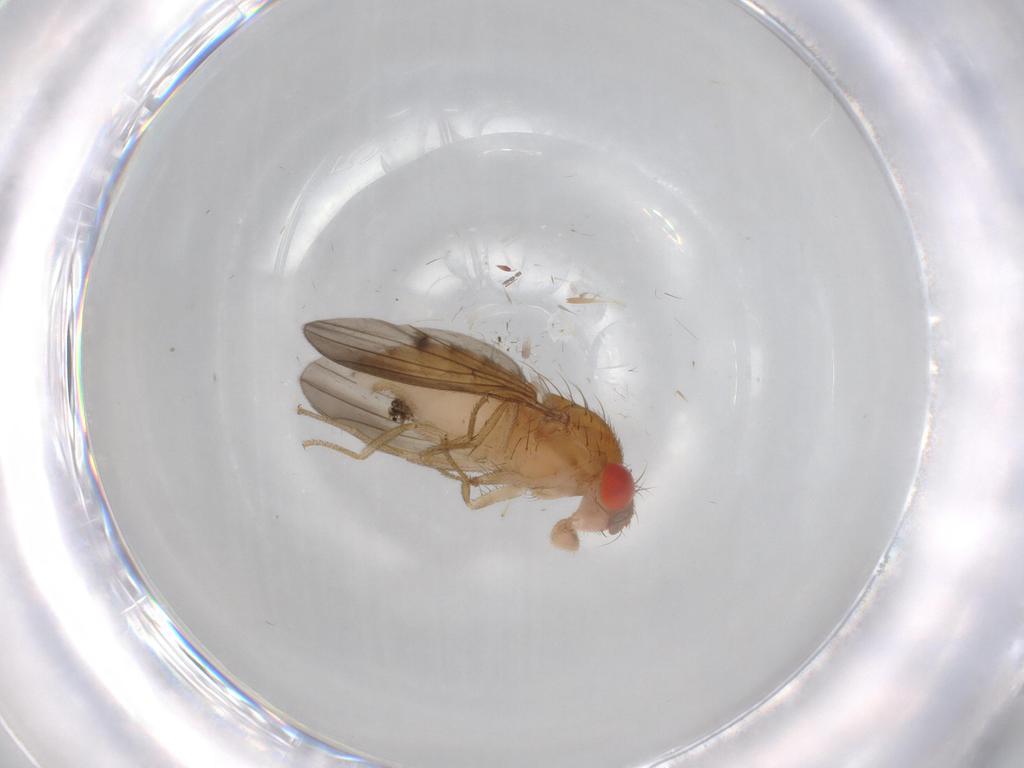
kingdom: Animalia
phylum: Arthropoda
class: Insecta
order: Diptera
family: Drosophilidae
